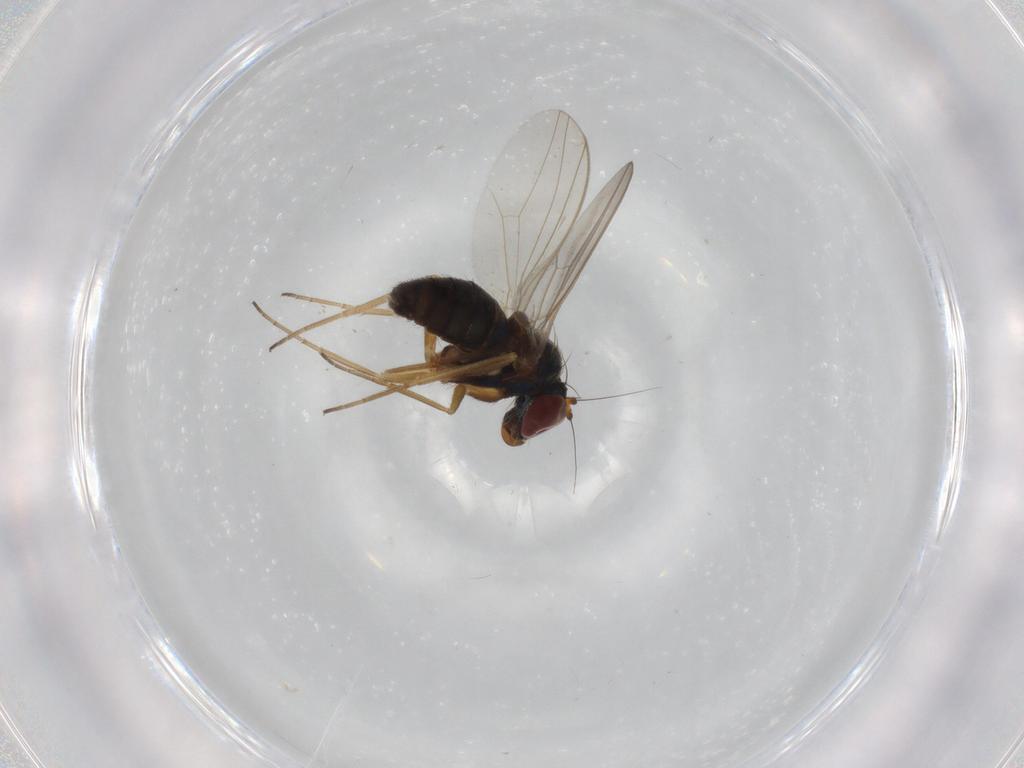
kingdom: Animalia
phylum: Arthropoda
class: Insecta
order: Diptera
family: Dolichopodidae
